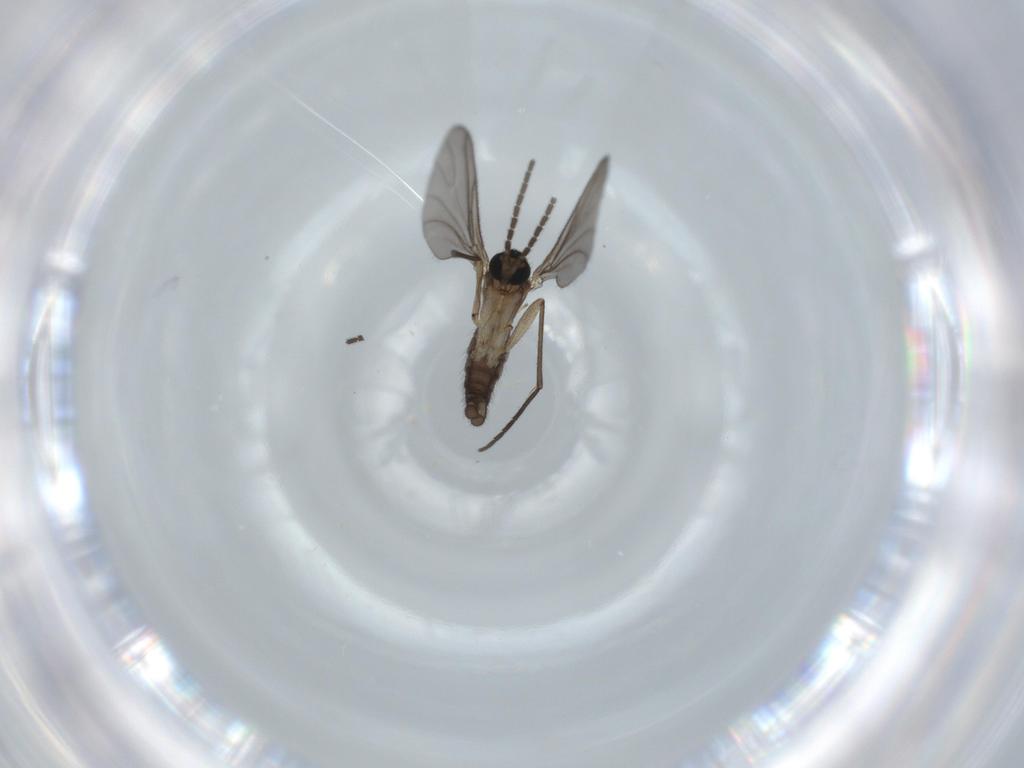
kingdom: Animalia
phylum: Arthropoda
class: Insecta
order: Diptera
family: Sciaridae
